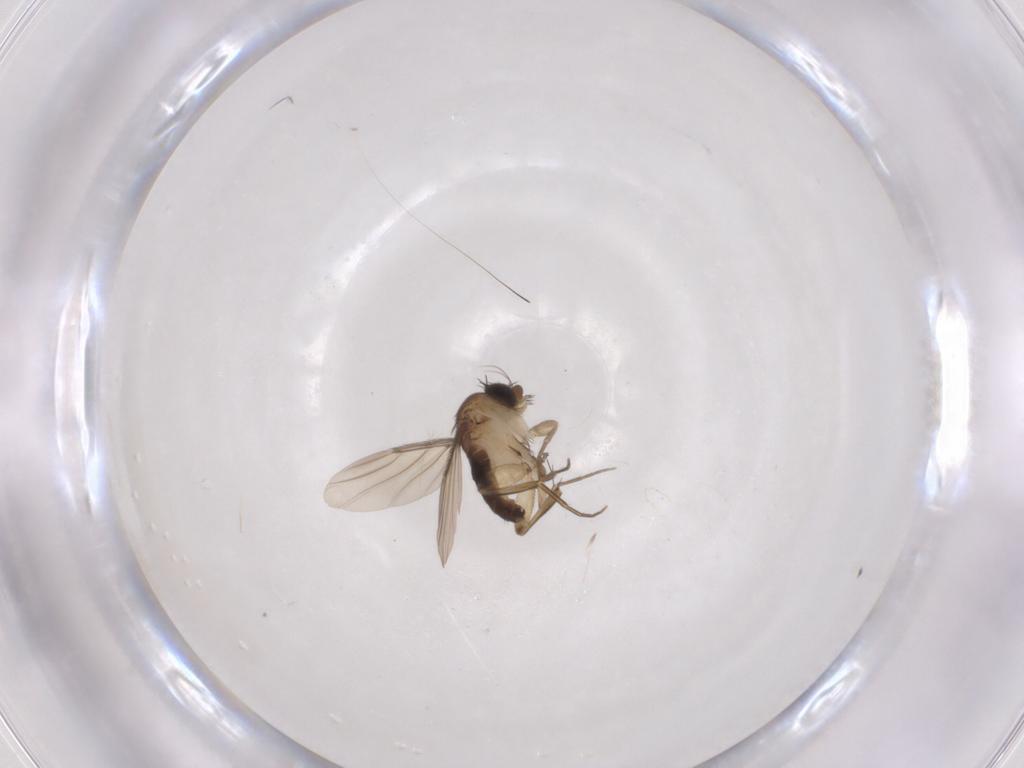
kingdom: Animalia
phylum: Arthropoda
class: Insecta
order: Diptera
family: Phoridae
